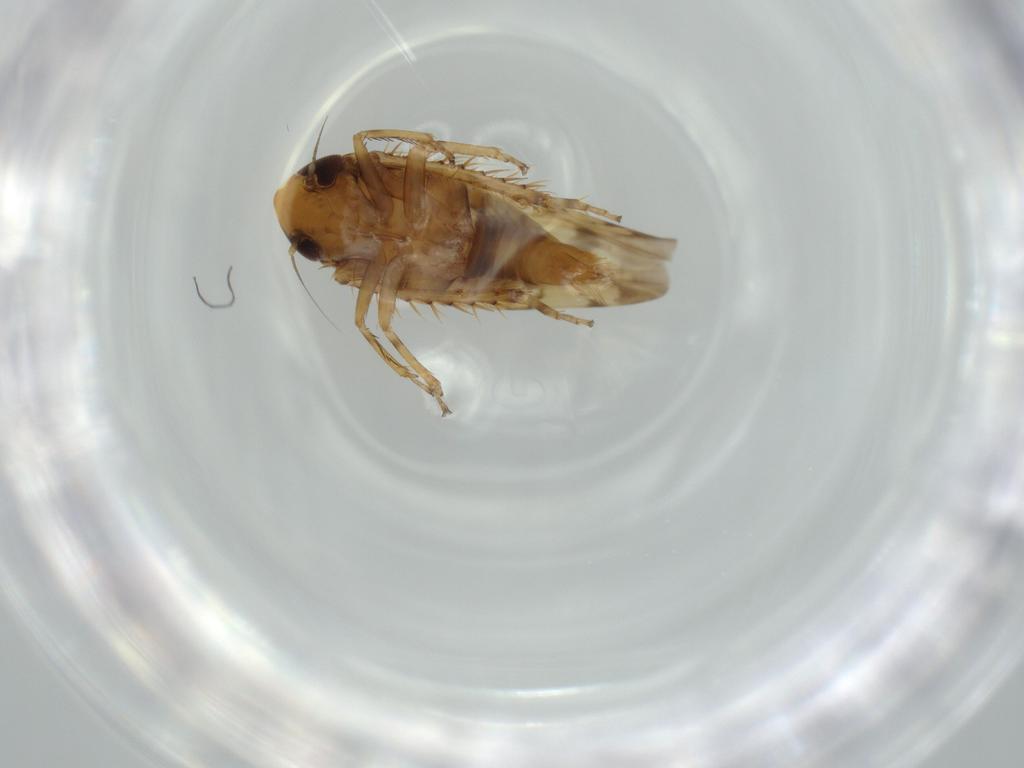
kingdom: Animalia
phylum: Arthropoda
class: Insecta
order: Hemiptera
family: Cicadellidae
